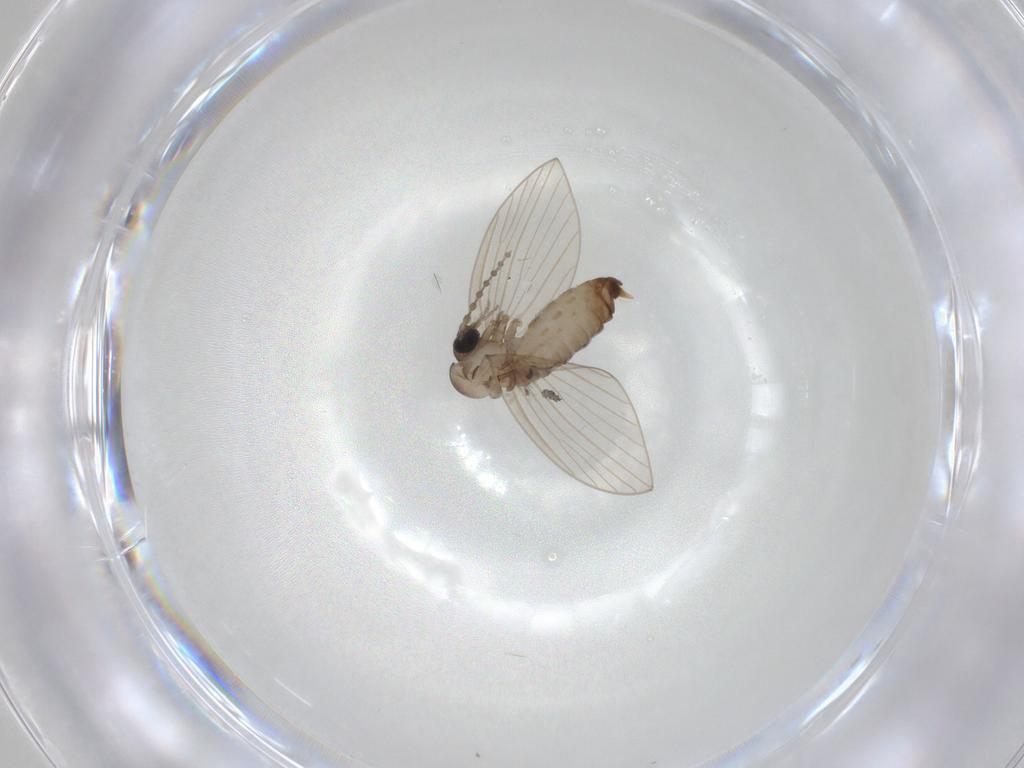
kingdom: Animalia
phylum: Arthropoda
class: Insecta
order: Diptera
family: Psychodidae
